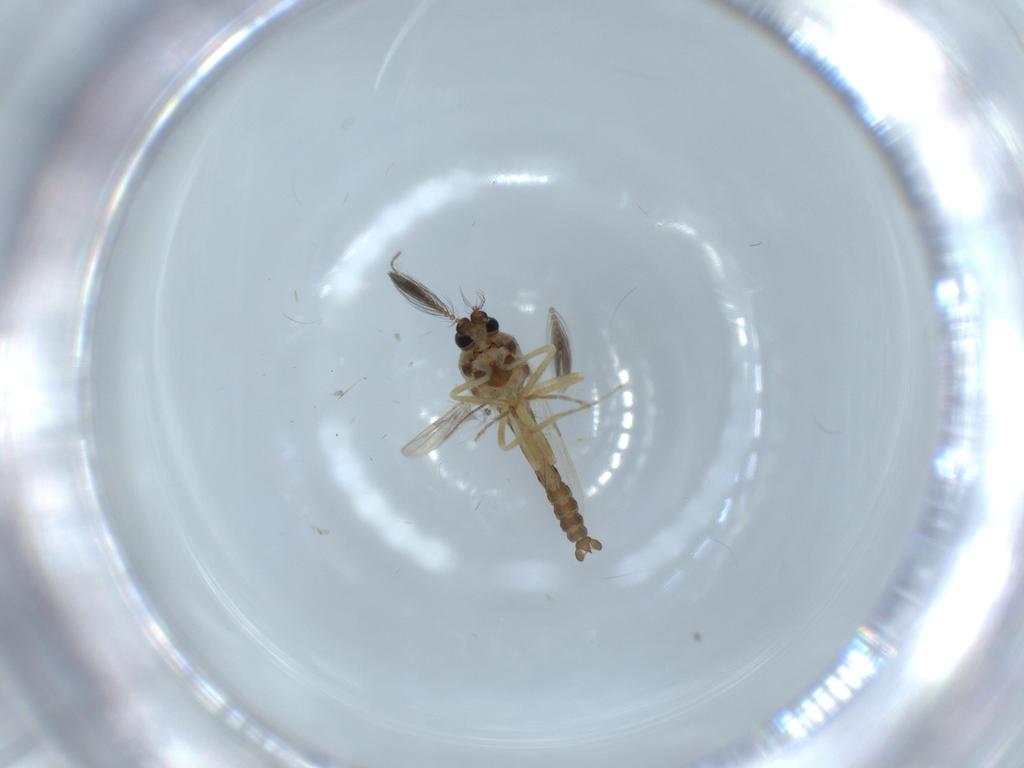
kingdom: Animalia
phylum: Arthropoda
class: Insecta
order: Diptera
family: Ceratopogonidae
